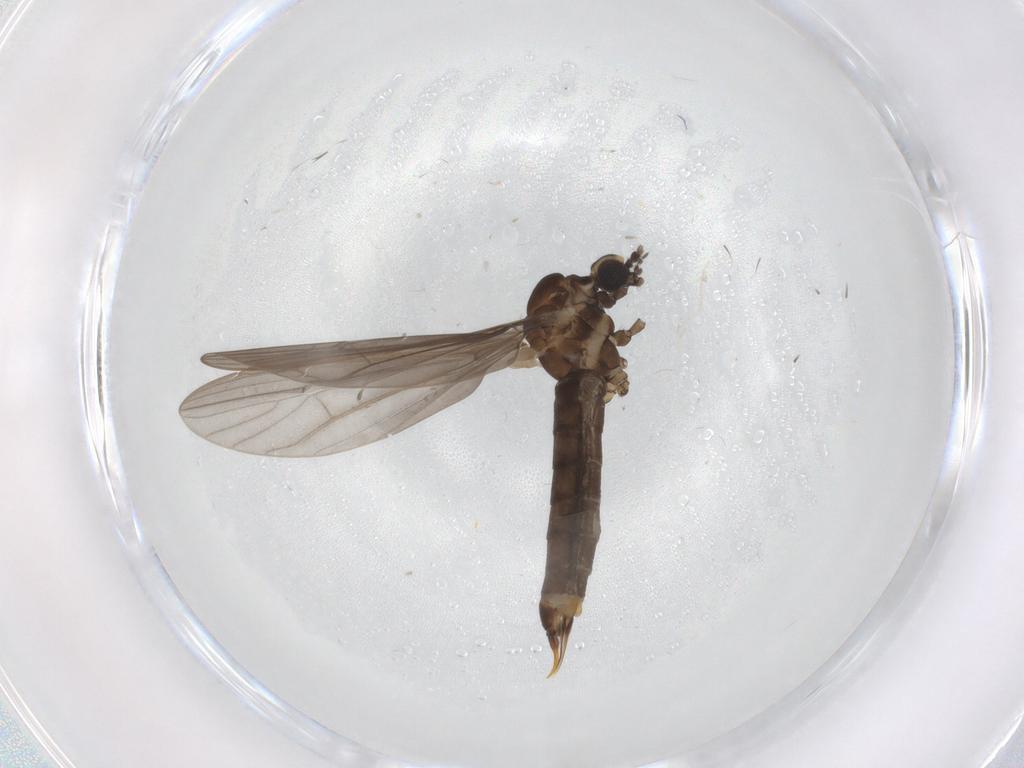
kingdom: Animalia
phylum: Arthropoda
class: Insecta
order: Diptera
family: Limoniidae
